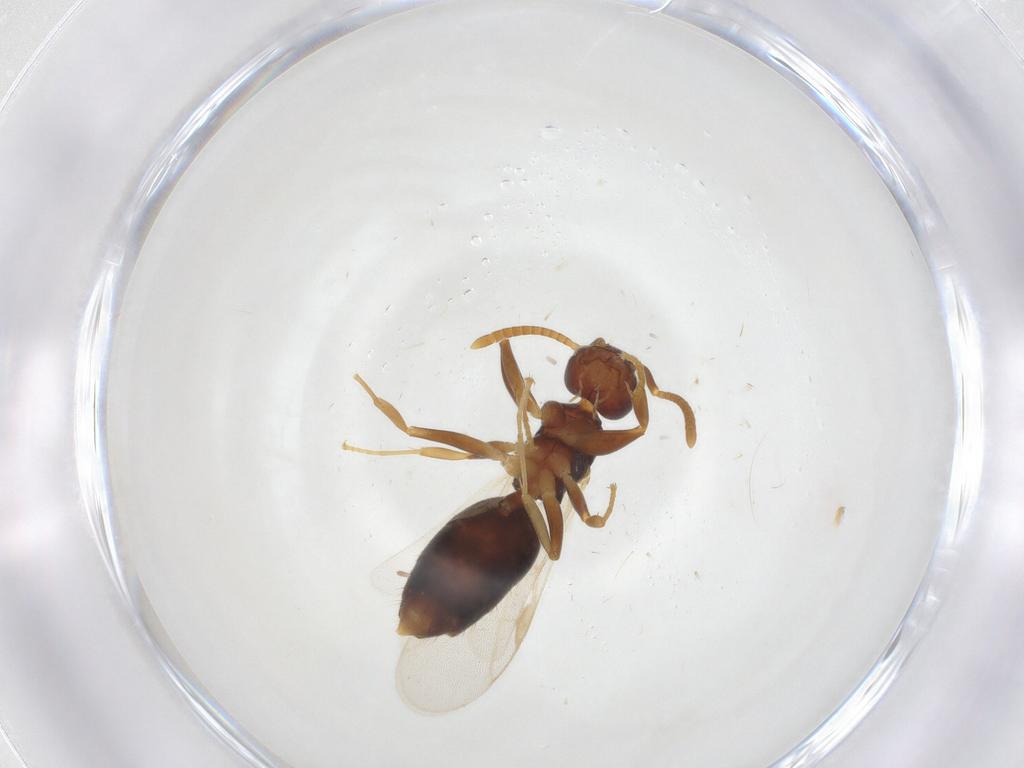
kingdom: Animalia
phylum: Arthropoda
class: Insecta
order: Hymenoptera
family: Formicidae
